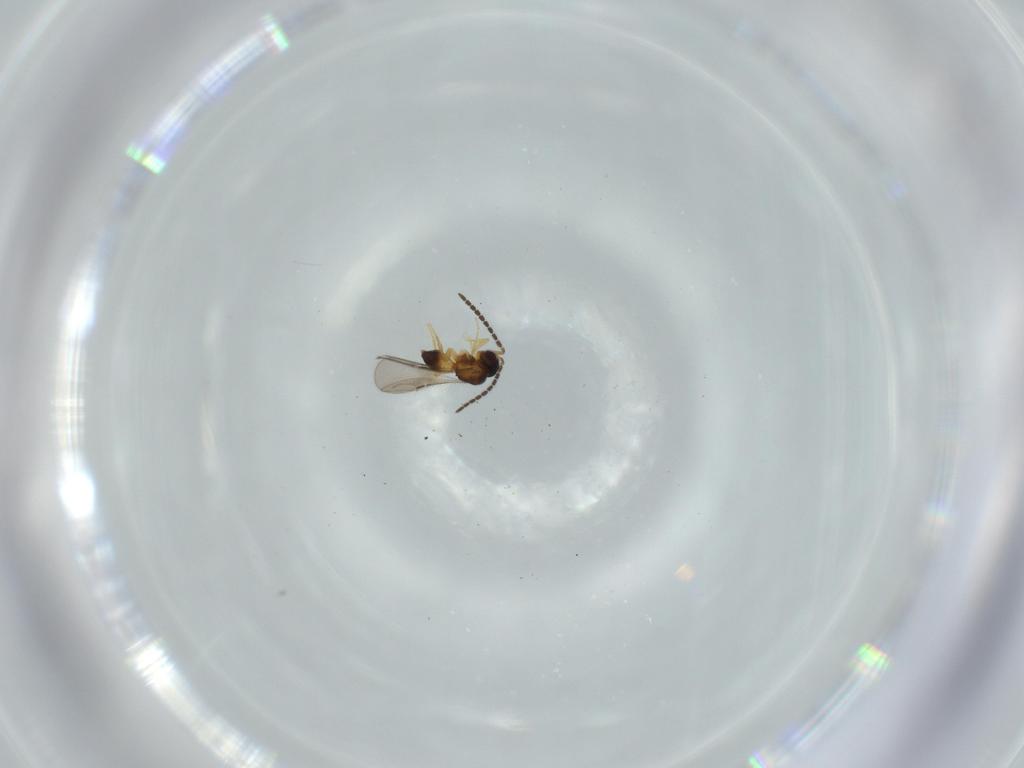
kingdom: Animalia
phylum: Arthropoda
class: Insecta
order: Hymenoptera
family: Ceraphronidae
